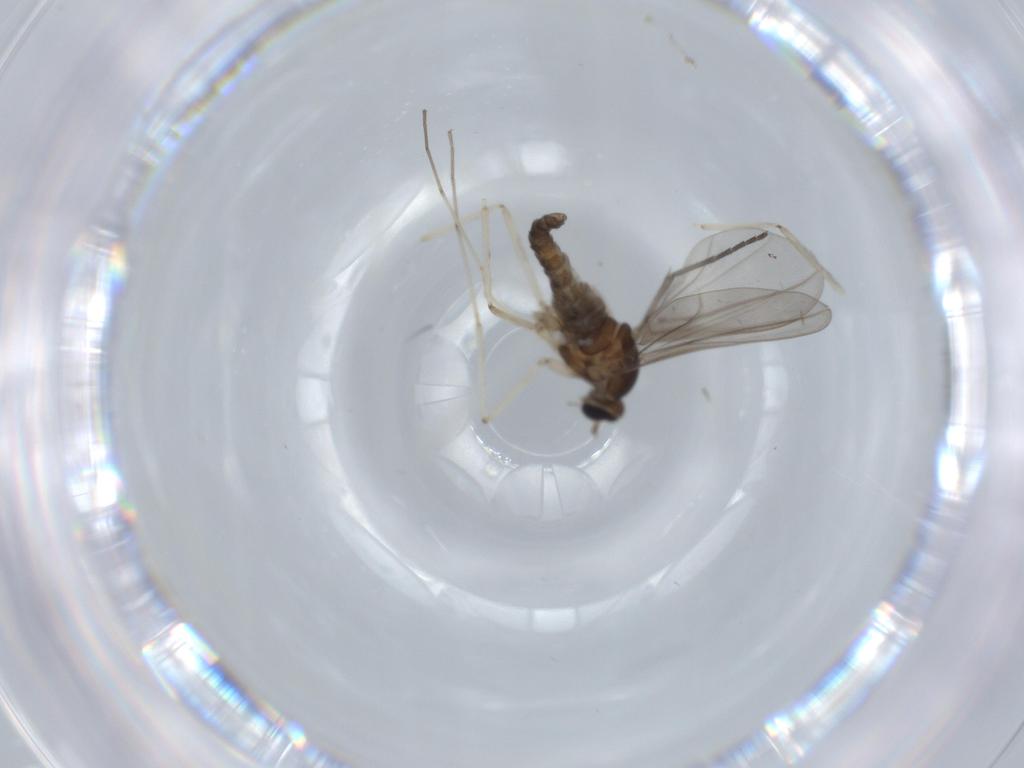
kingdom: Animalia
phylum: Arthropoda
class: Insecta
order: Diptera
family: Cecidomyiidae
